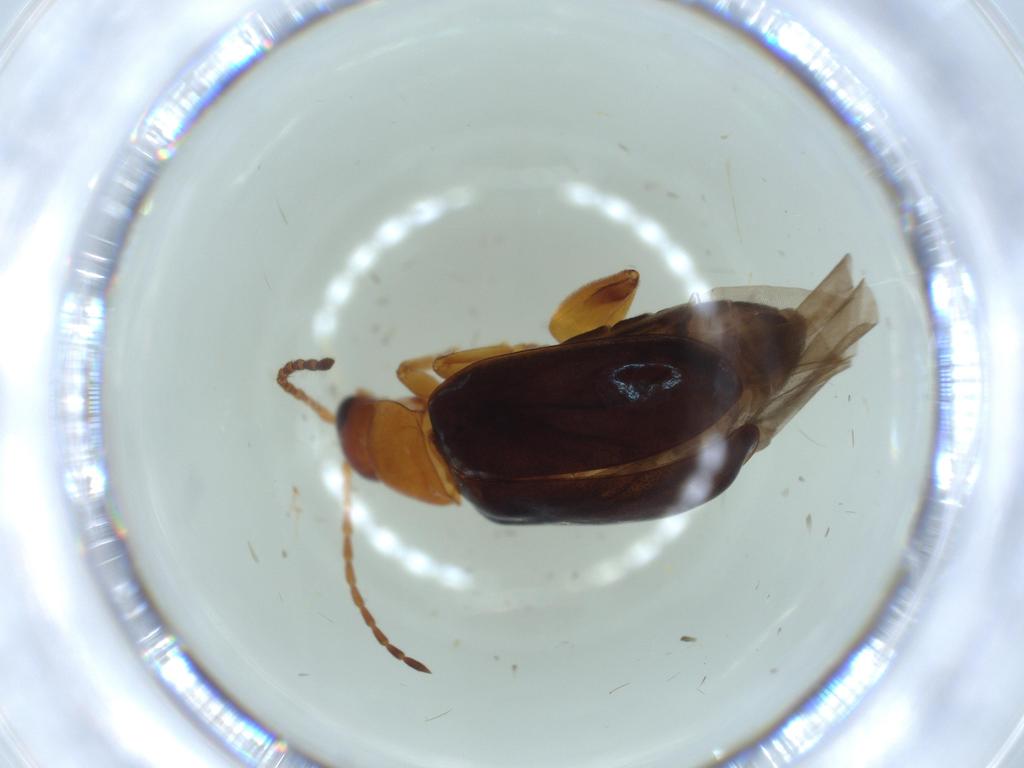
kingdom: Animalia
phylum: Arthropoda
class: Insecta
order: Coleoptera
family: Chrysomelidae
